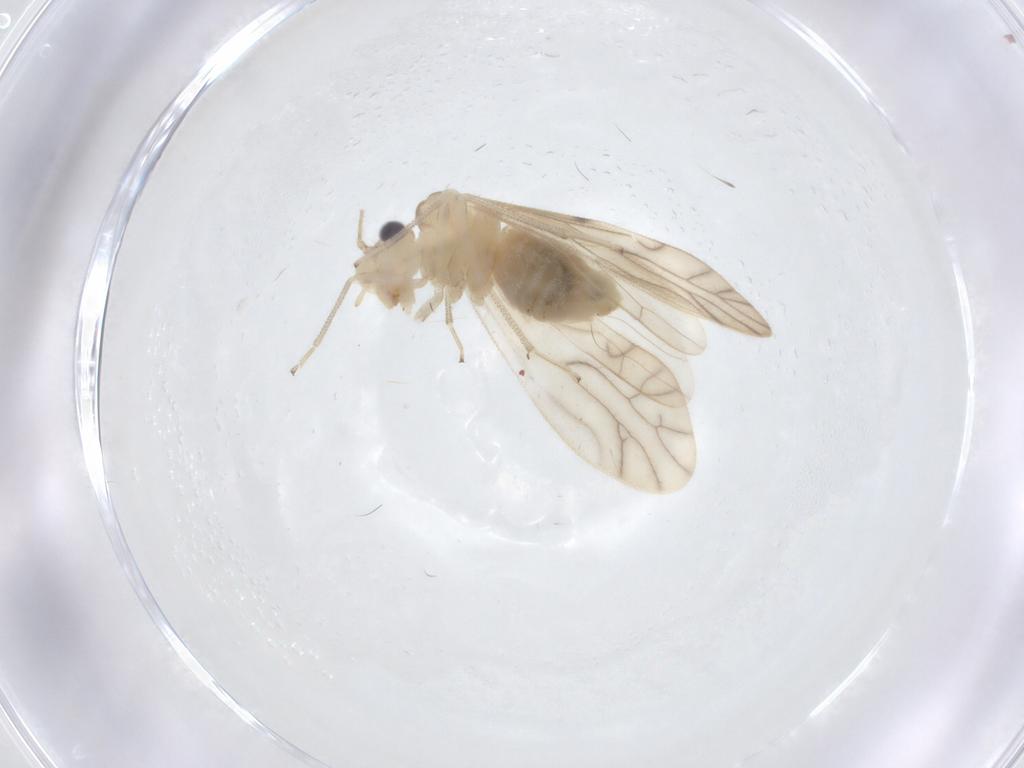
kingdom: Animalia
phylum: Arthropoda
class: Insecta
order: Psocodea
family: Caeciliusidae
